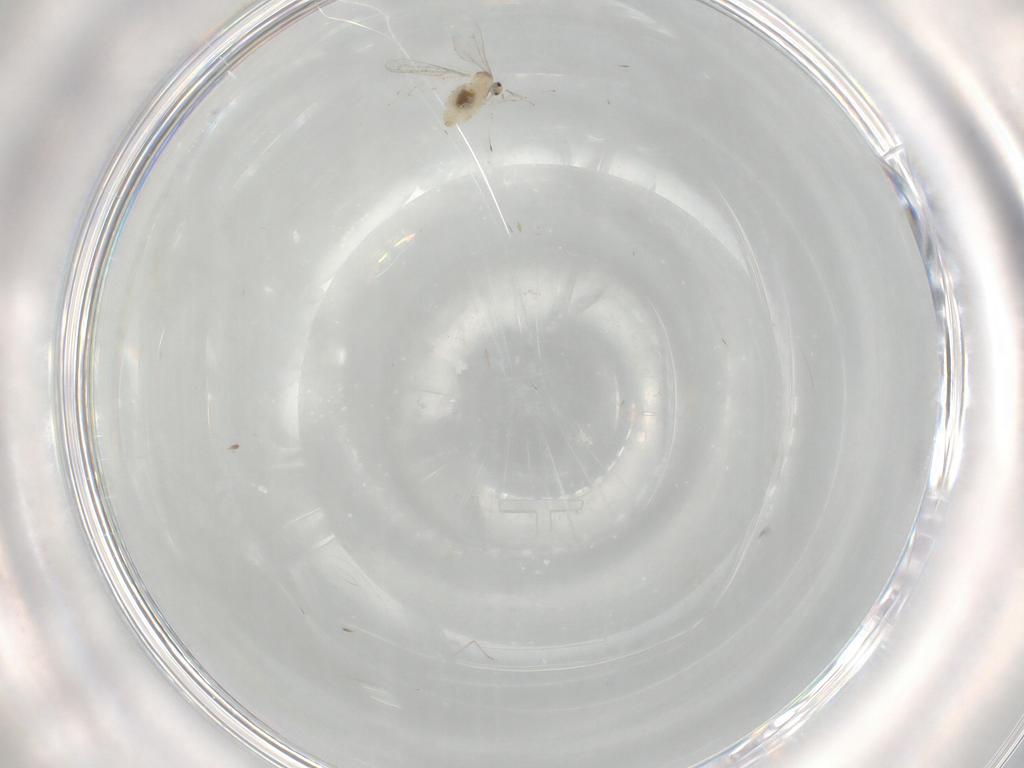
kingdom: Animalia
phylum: Arthropoda
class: Insecta
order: Diptera
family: Cecidomyiidae
